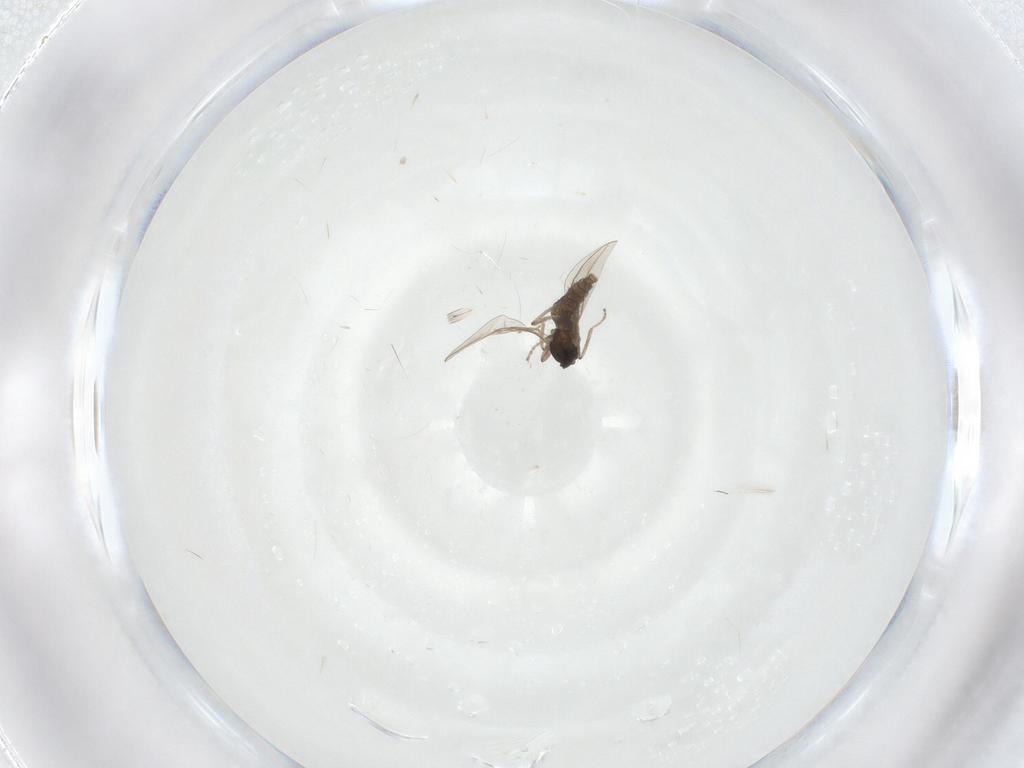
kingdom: Animalia
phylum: Arthropoda
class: Insecta
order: Diptera
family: Cecidomyiidae
